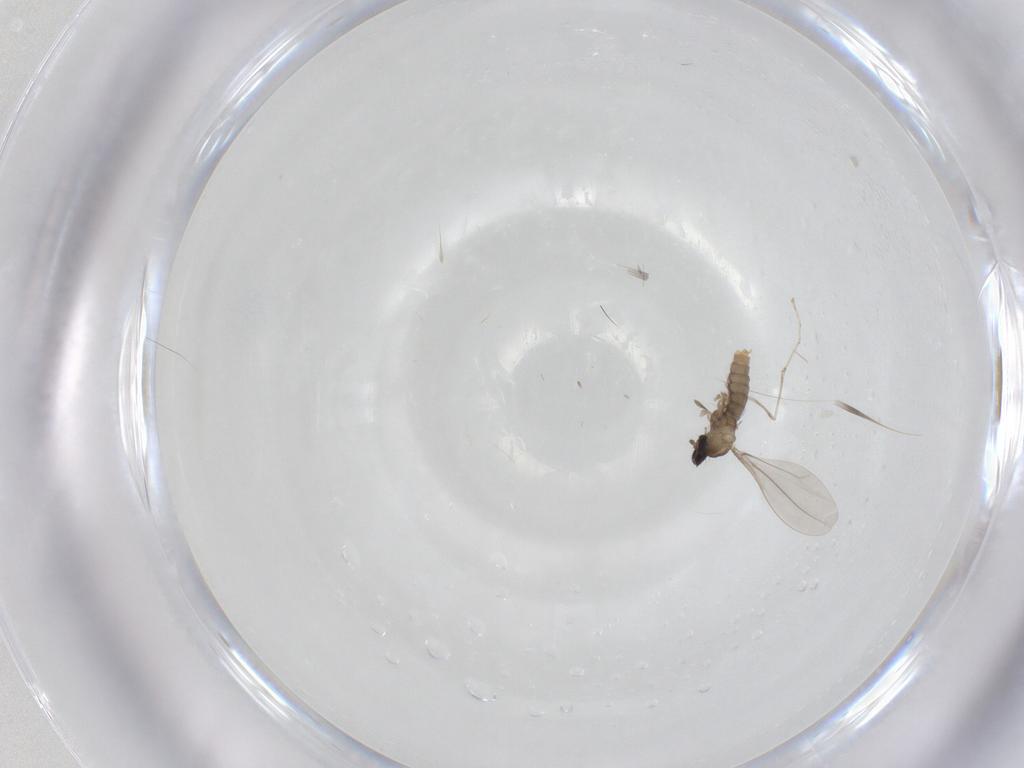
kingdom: Animalia
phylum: Arthropoda
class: Insecta
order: Diptera
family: Cecidomyiidae
